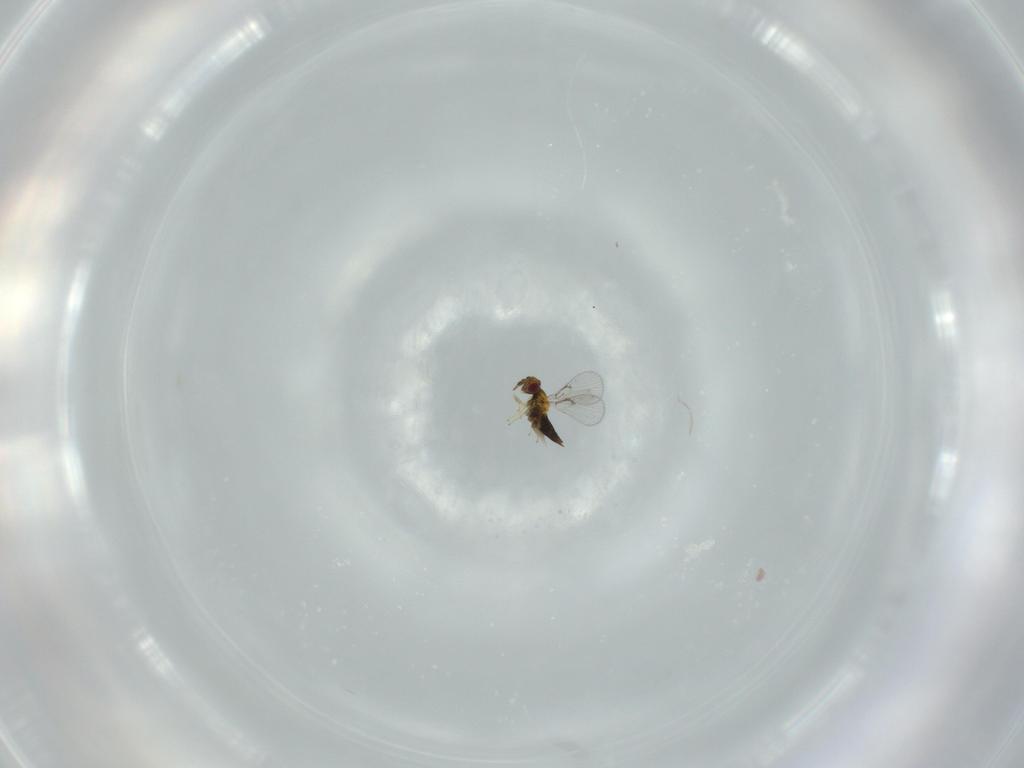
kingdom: Animalia
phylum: Arthropoda
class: Insecta
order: Hymenoptera
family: Trichogrammatidae
